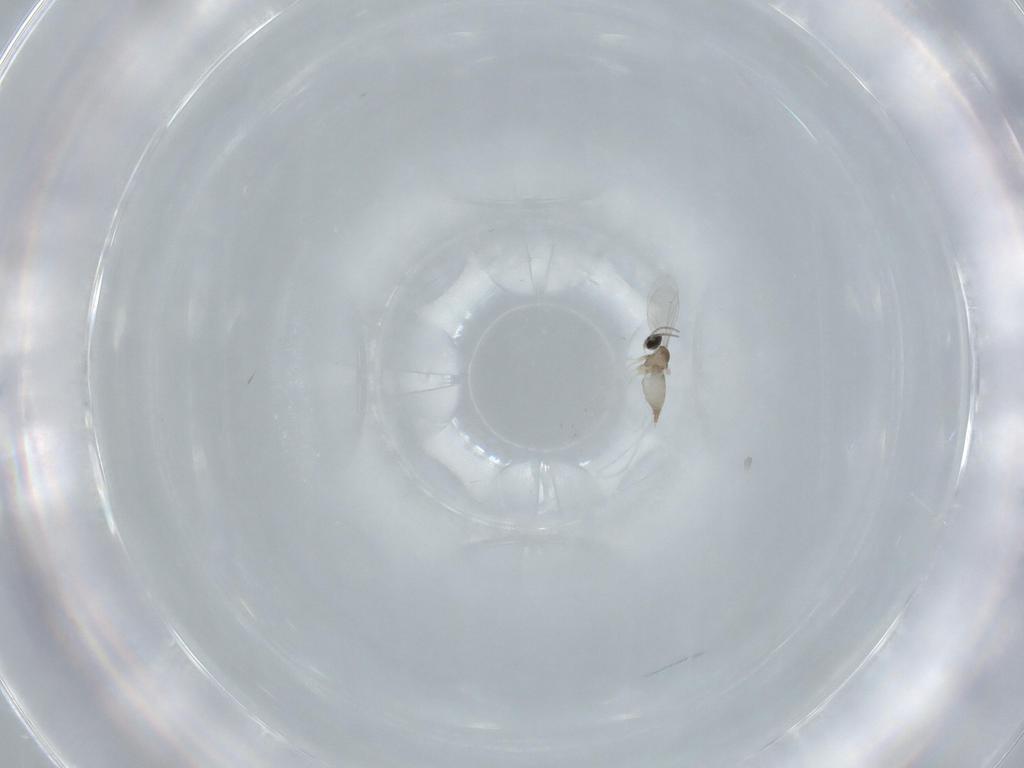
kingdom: Animalia
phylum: Arthropoda
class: Insecta
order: Diptera
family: Cecidomyiidae
